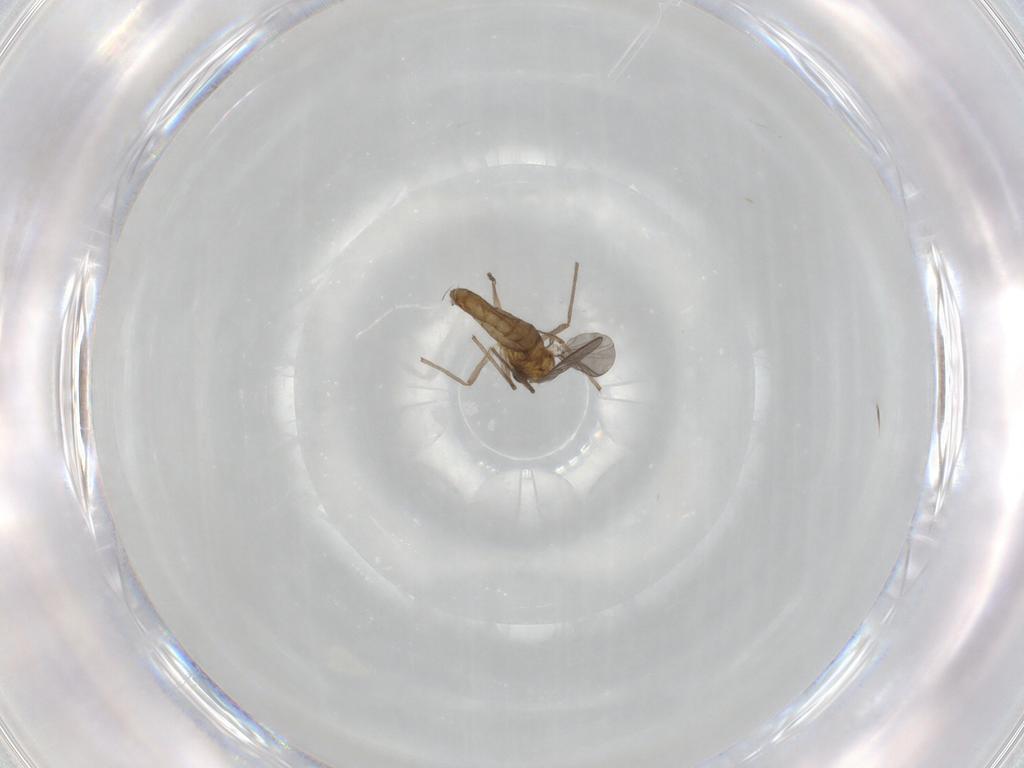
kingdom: Animalia
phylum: Arthropoda
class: Insecta
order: Diptera
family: Chironomidae
